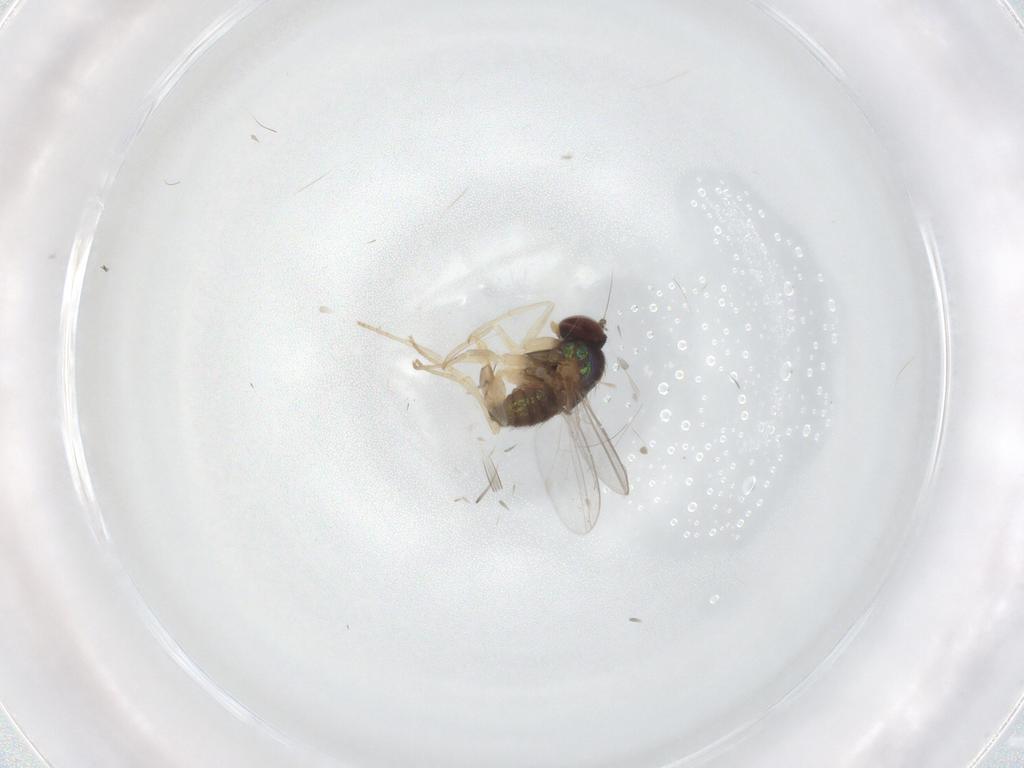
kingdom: Animalia
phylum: Arthropoda
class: Insecta
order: Diptera
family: Dolichopodidae
